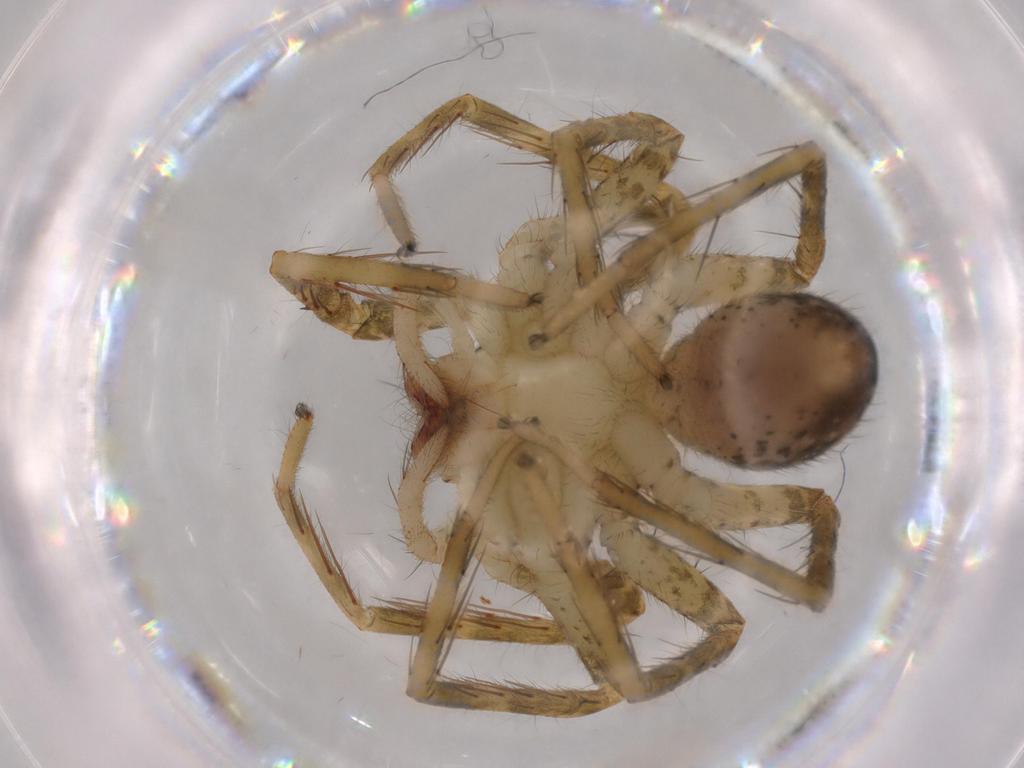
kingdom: Animalia
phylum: Arthropoda
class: Arachnida
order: Araneae
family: Trechaleidae
